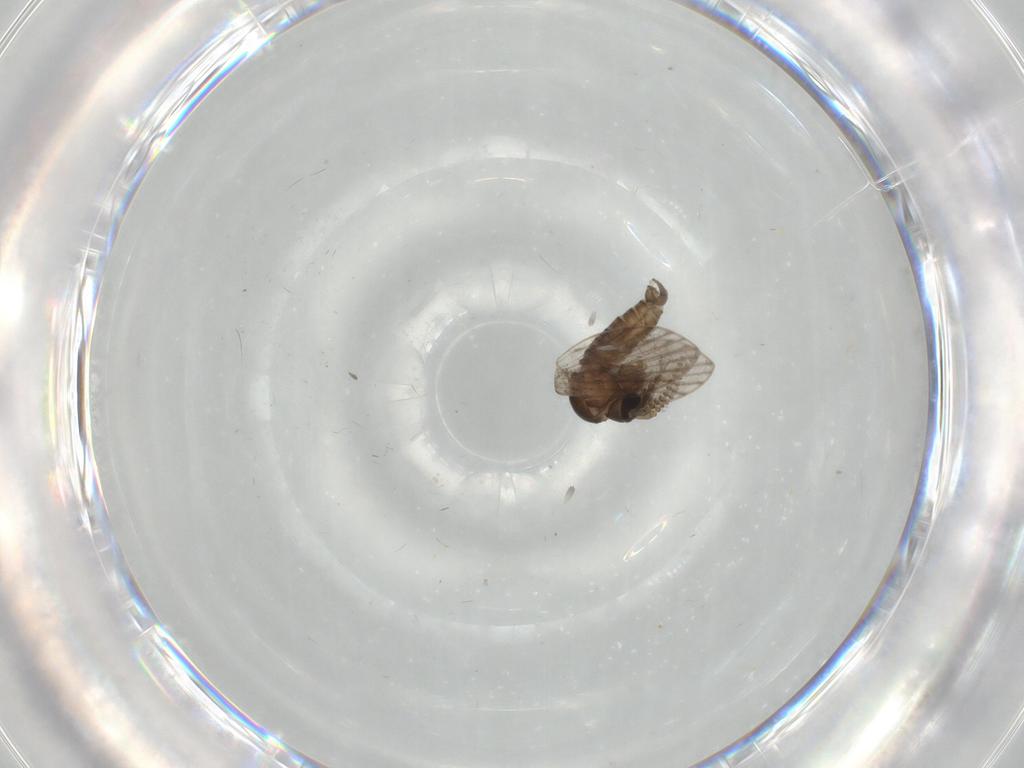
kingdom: Animalia
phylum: Arthropoda
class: Insecta
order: Diptera
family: Psychodidae
